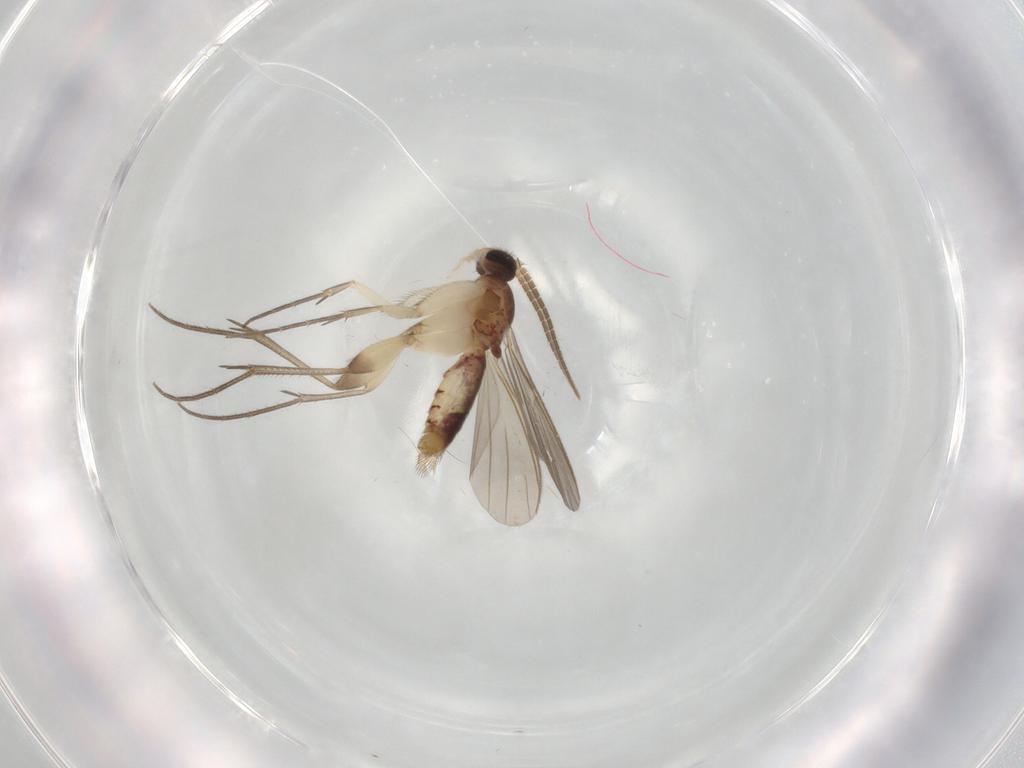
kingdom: Animalia
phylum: Arthropoda
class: Insecta
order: Diptera
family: Mycetophilidae
